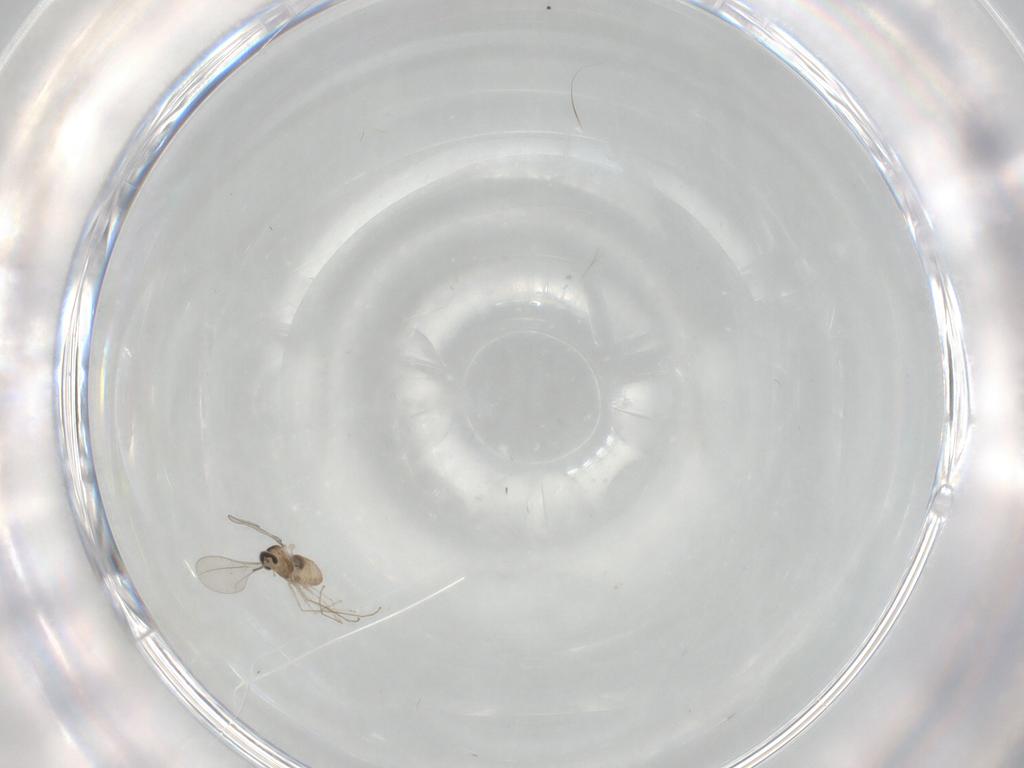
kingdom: Animalia
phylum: Arthropoda
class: Insecta
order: Diptera
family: Cecidomyiidae
